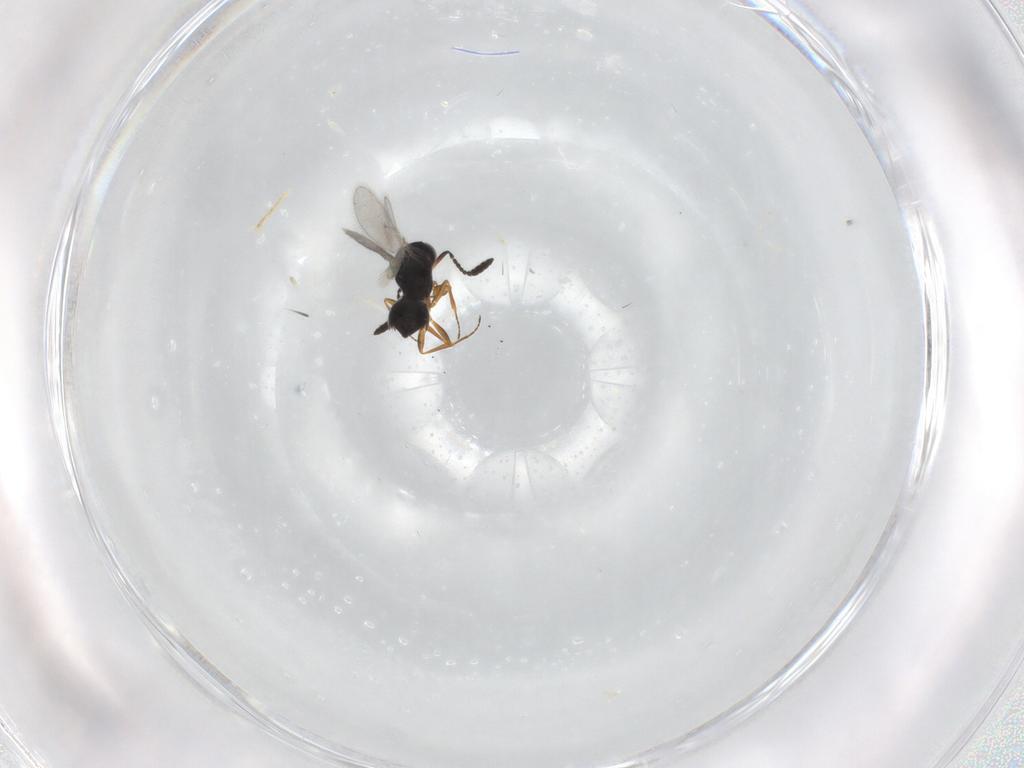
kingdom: Animalia
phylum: Arthropoda
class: Insecta
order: Hymenoptera
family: Scelionidae
